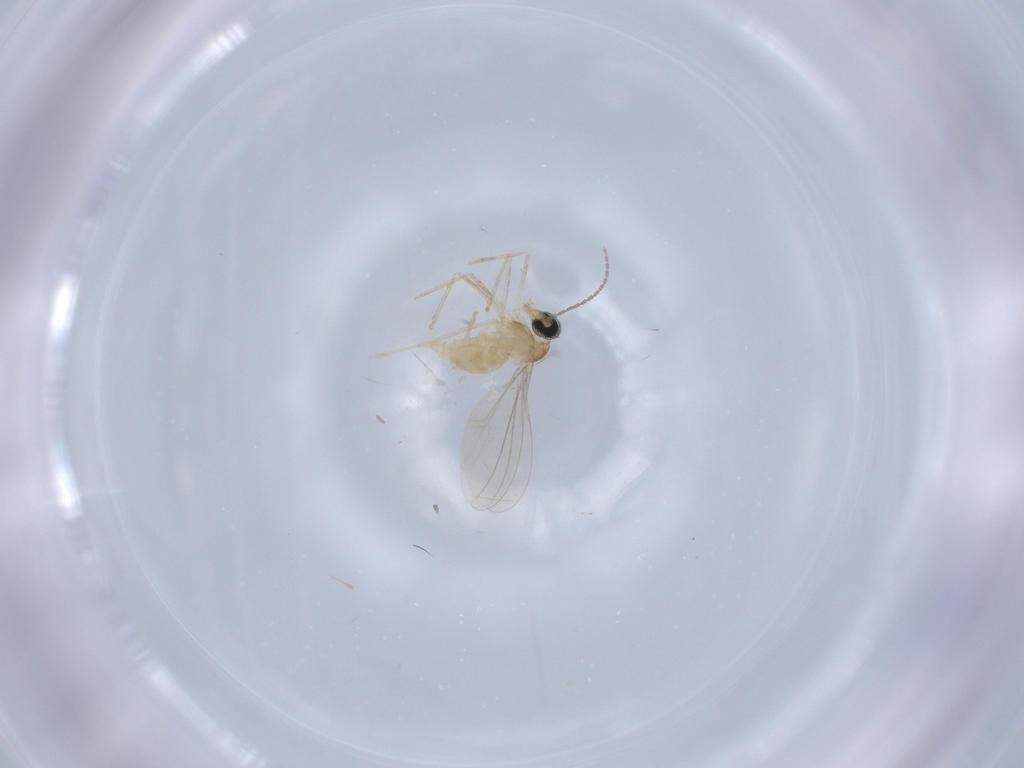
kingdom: Animalia
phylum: Arthropoda
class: Insecta
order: Diptera
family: Cecidomyiidae
